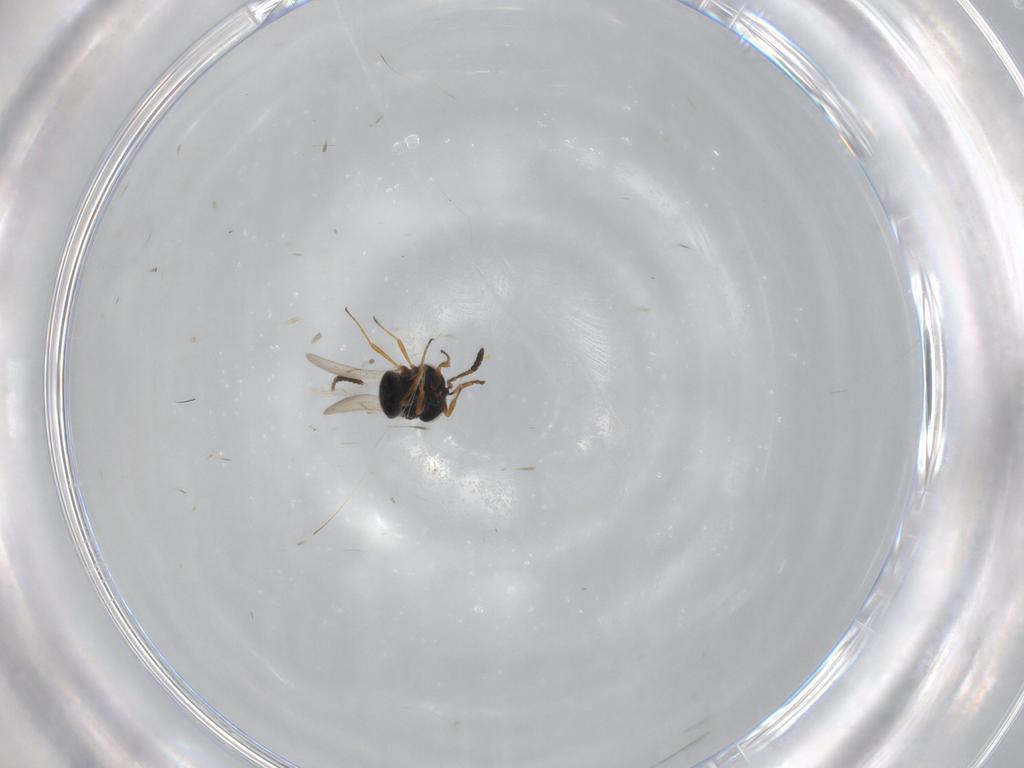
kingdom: Animalia
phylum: Arthropoda
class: Insecta
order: Hymenoptera
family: Scelionidae
